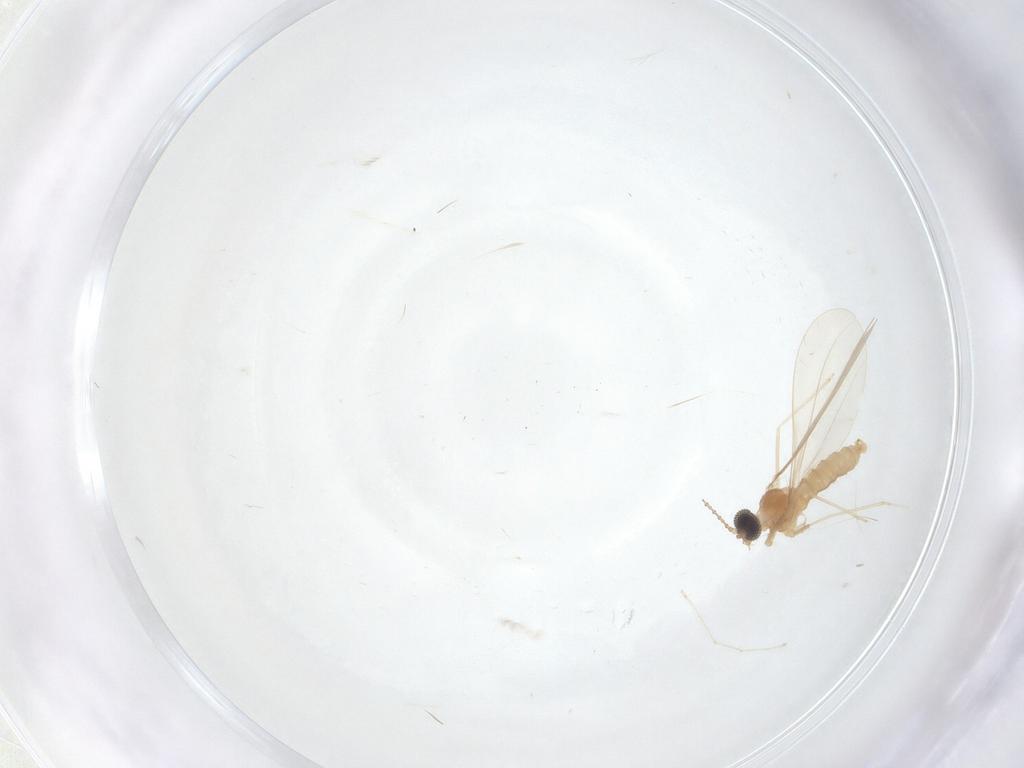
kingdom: Animalia
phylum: Arthropoda
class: Insecta
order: Diptera
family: Cecidomyiidae
